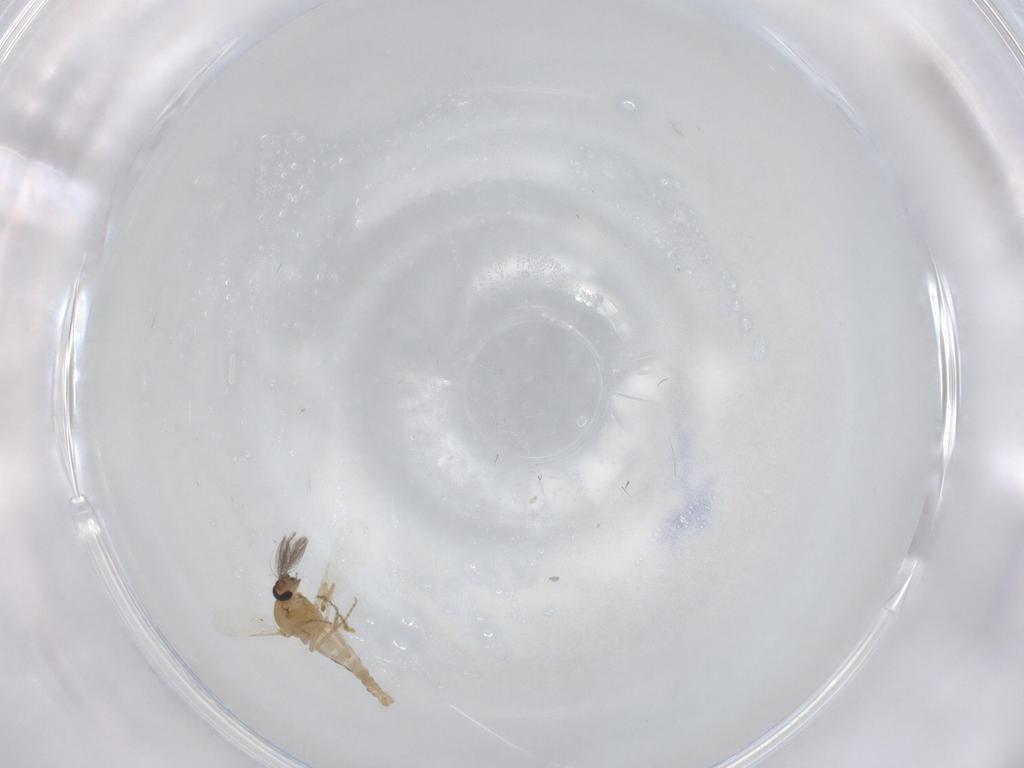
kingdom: Animalia
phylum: Arthropoda
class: Insecta
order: Diptera
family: Ceratopogonidae
